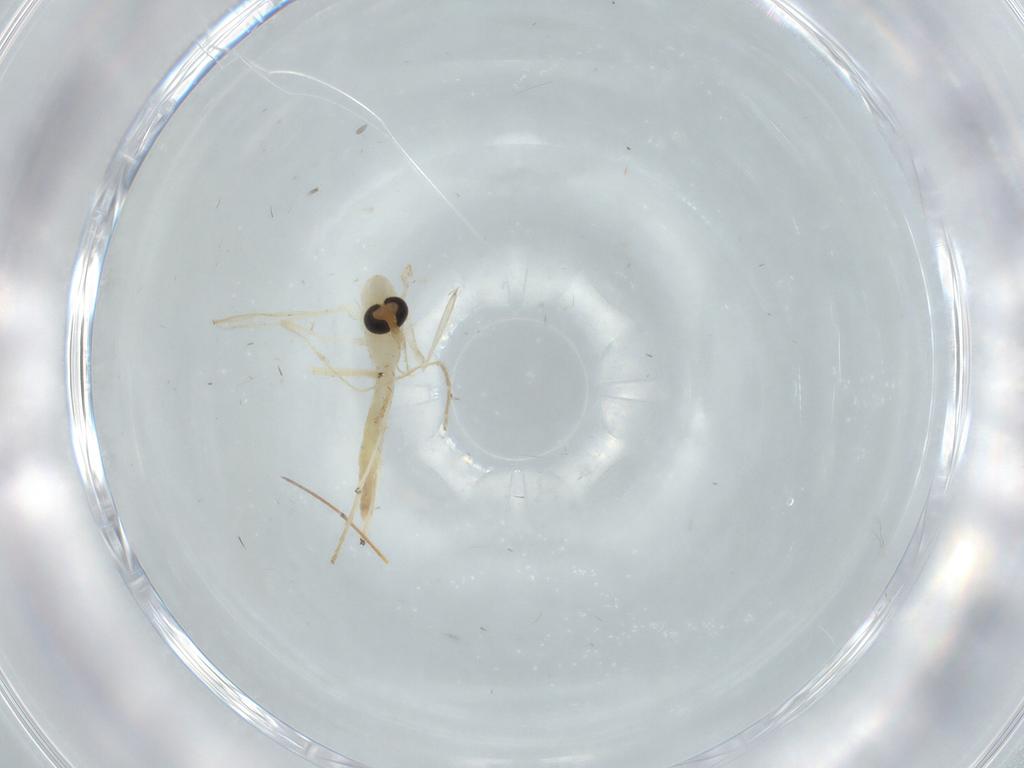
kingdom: Animalia
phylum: Arthropoda
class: Insecta
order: Diptera
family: Chironomidae
